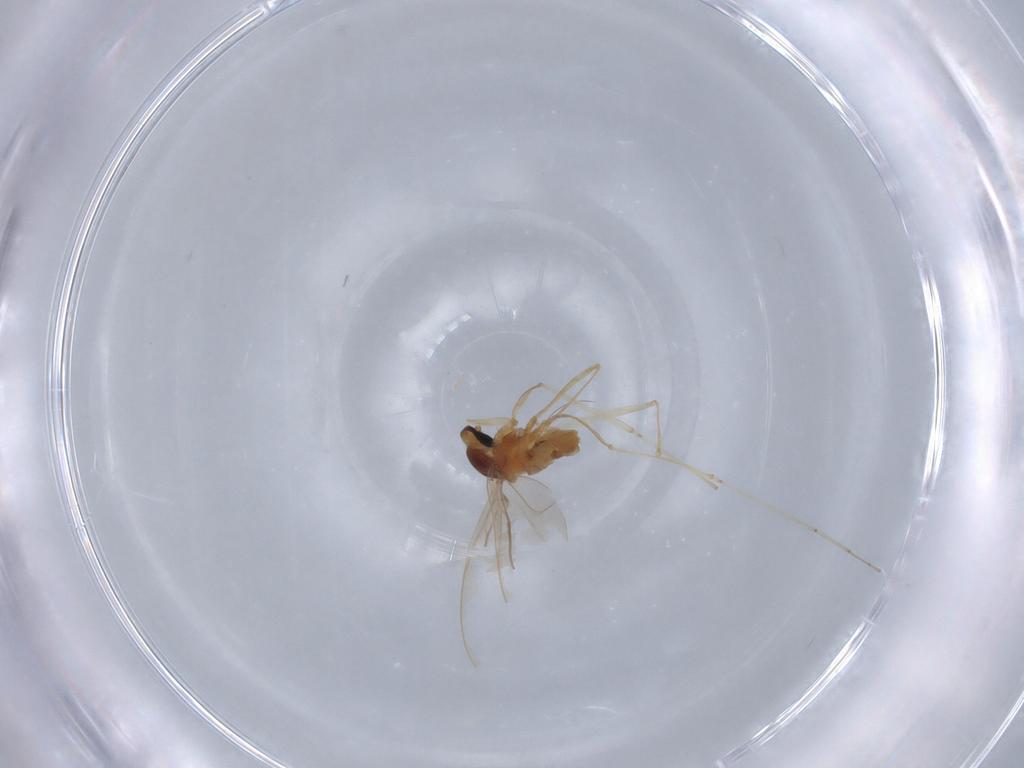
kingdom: Animalia
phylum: Arthropoda
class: Insecta
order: Diptera
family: Cecidomyiidae
